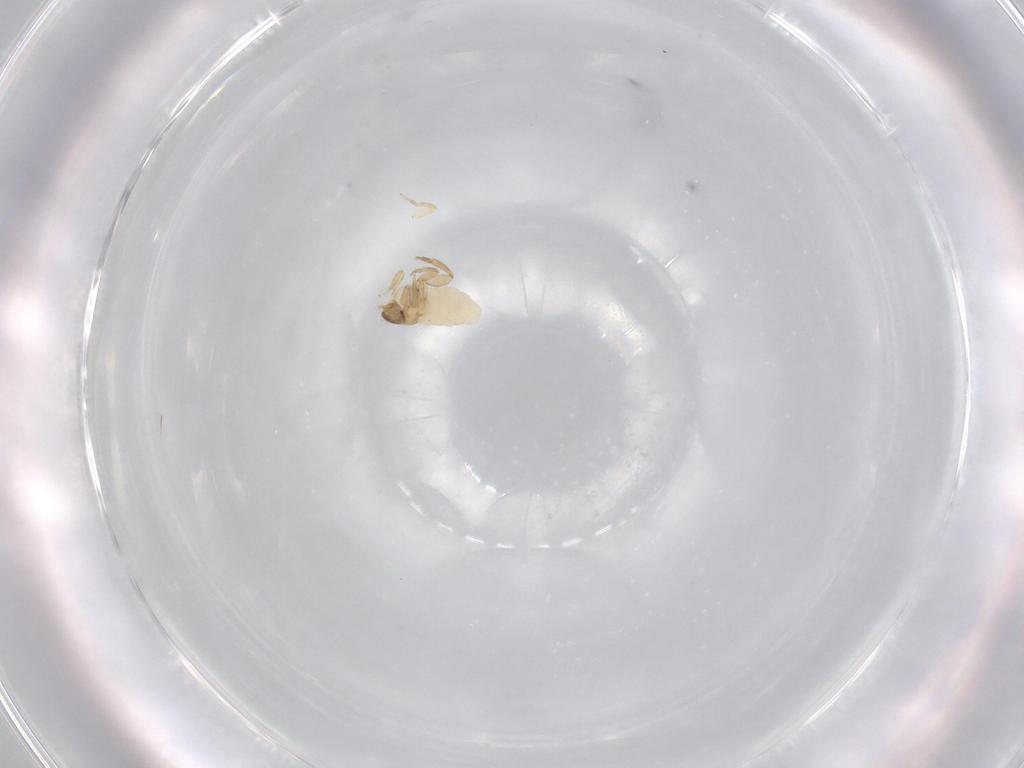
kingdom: Animalia
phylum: Arthropoda
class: Insecta
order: Diptera
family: Phoridae
